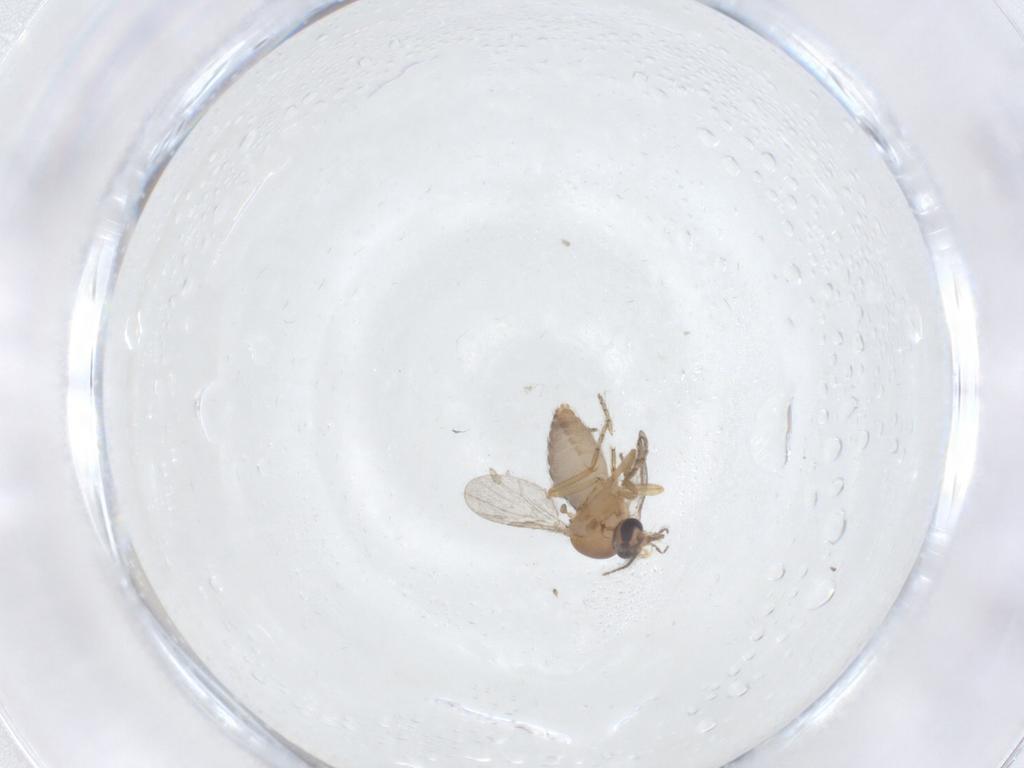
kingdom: Animalia
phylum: Arthropoda
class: Insecta
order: Diptera
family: Ceratopogonidae
